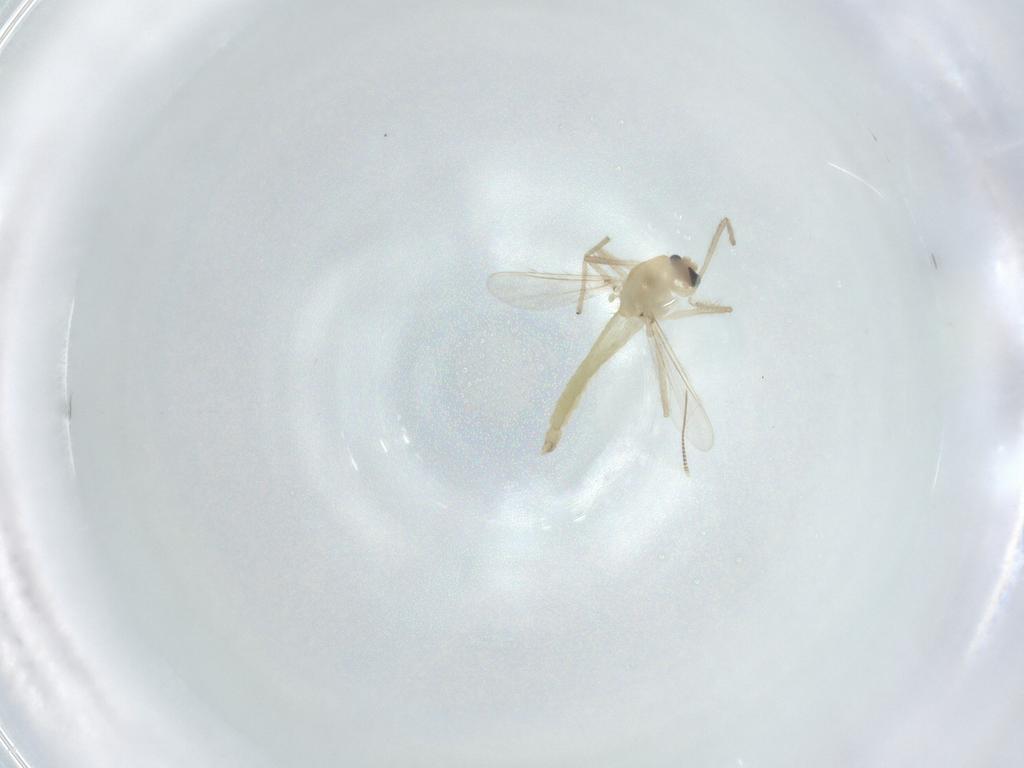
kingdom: Animalia
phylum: Arthropoda
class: Insecta
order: Diptera
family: Chironomidae
